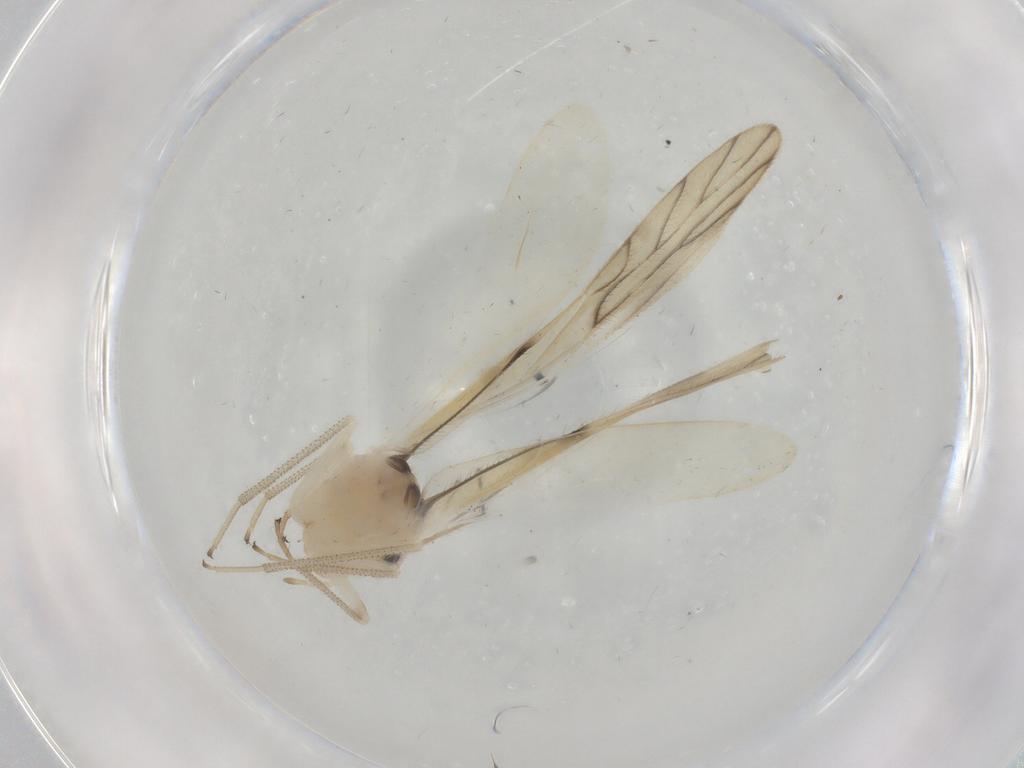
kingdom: Animalia
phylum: Arthropoda
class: Insecta
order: Psocodea
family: Caeciliusidae
